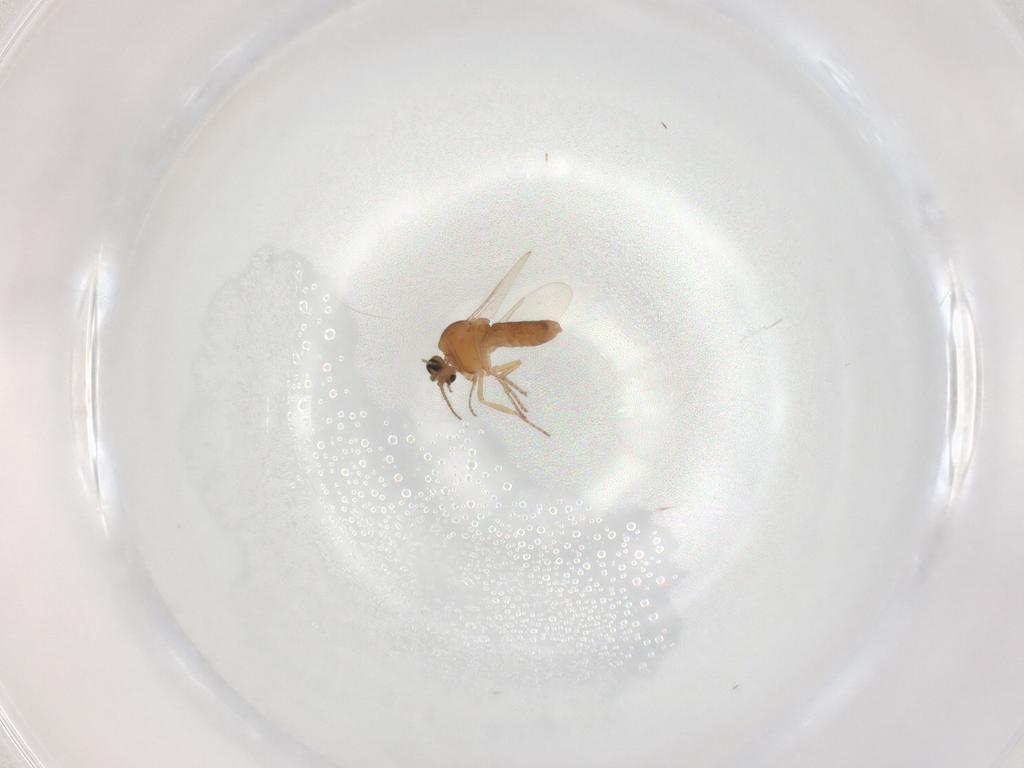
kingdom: Animalia
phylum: Arthropoda
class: Insecta
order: Diptera
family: Ceratopogonidae
